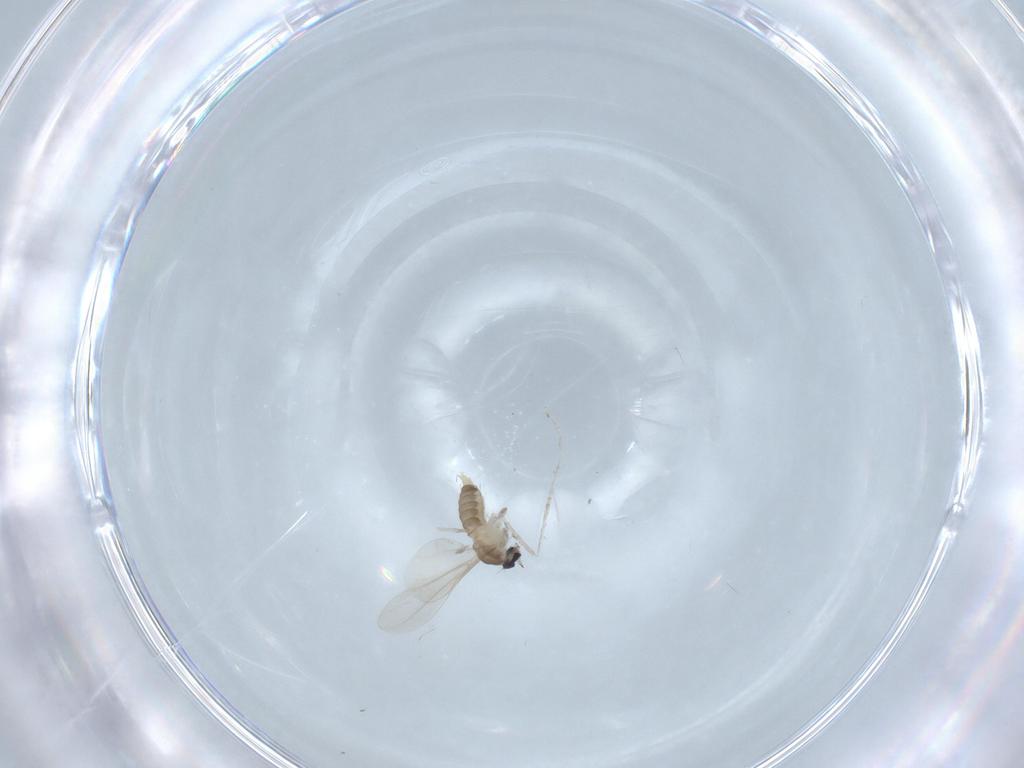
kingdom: Animalia
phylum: Arthropoda
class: Insecta
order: Diptera
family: Cecidomyiidae
